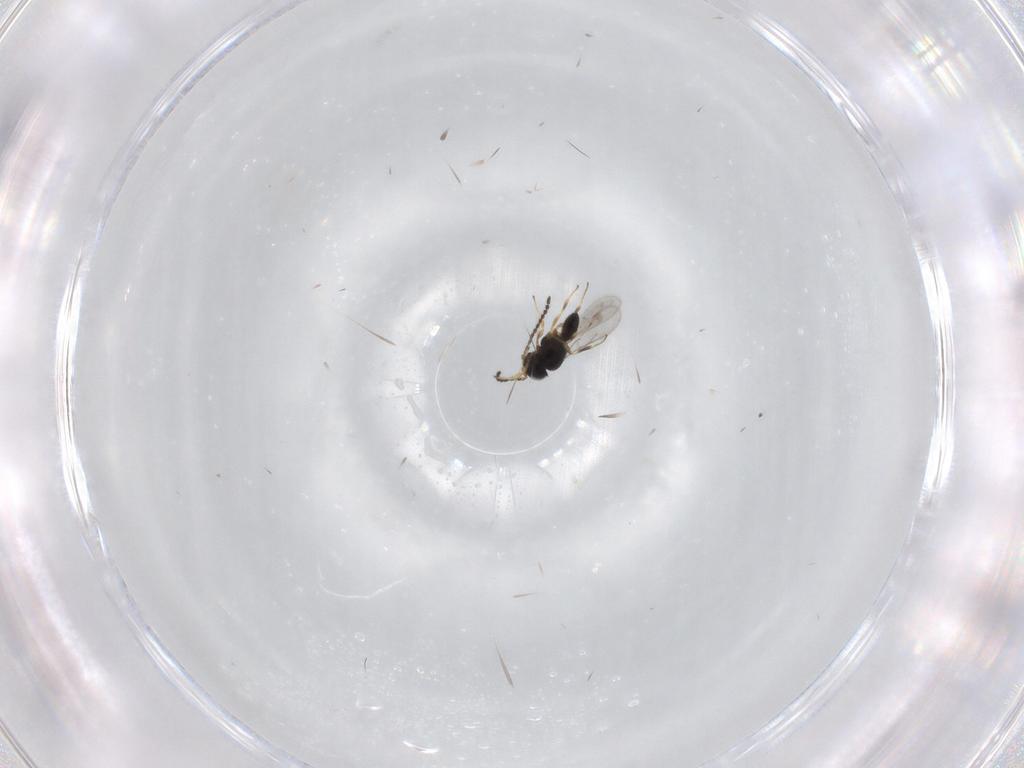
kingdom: Animalia
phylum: Arthropoda
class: Insecta
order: Hymenoptera
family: Scelionidae
